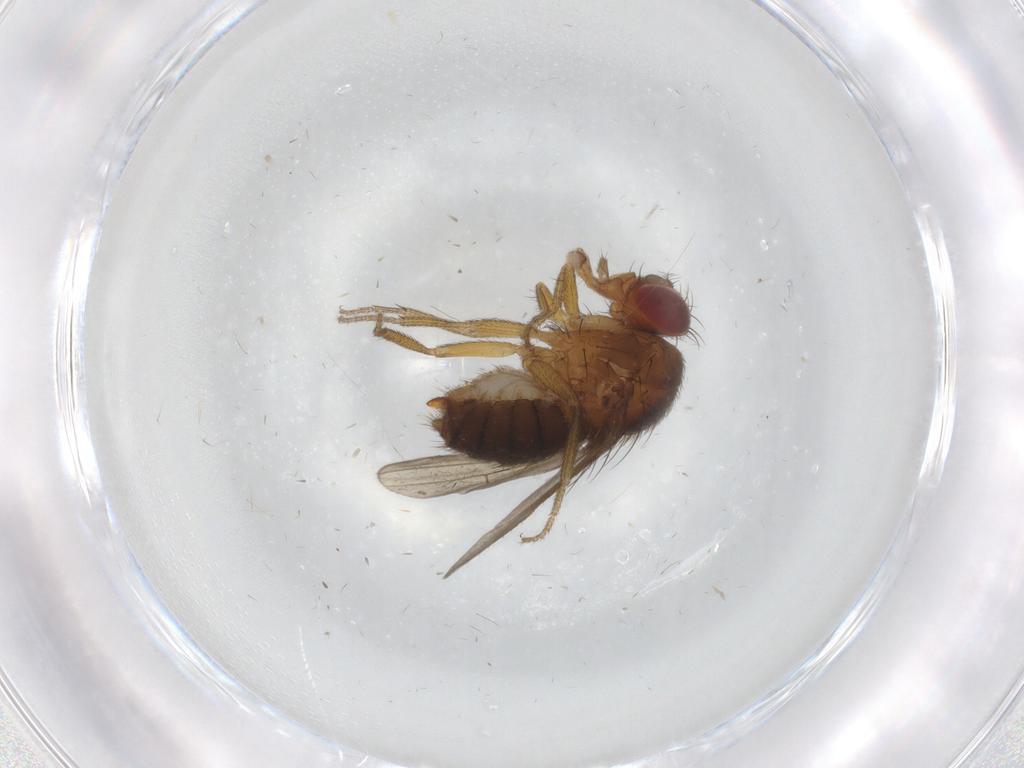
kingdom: Animalia
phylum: Arthropoda
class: Insecta
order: Diptera
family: Drosophilidae
